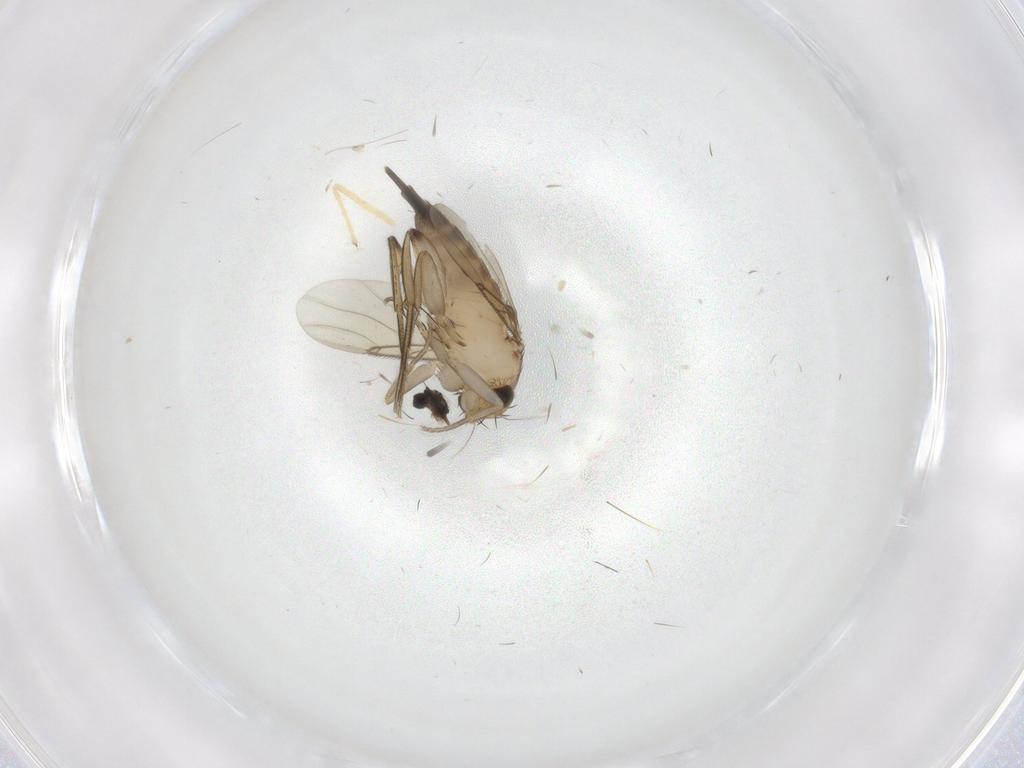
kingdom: Animalia
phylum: Arthropoda
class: Insecta
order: Diptera
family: Chironomidae
